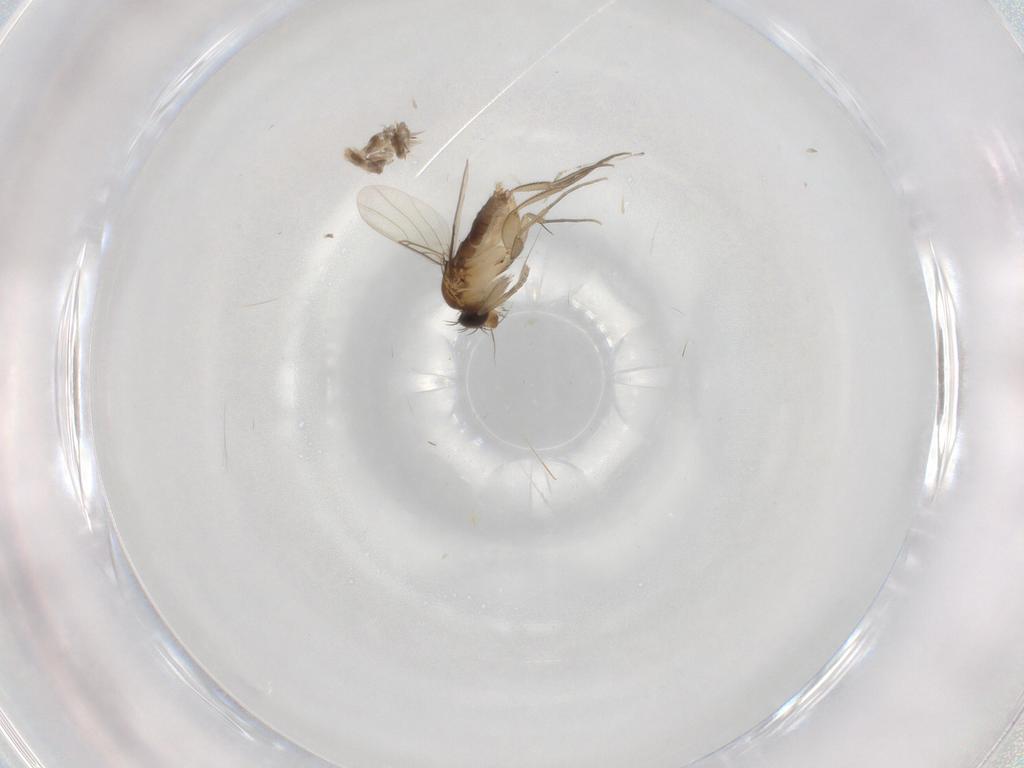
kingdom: Animalia
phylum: Arthropoda
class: Insecta
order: Diptera
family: Phoridae
